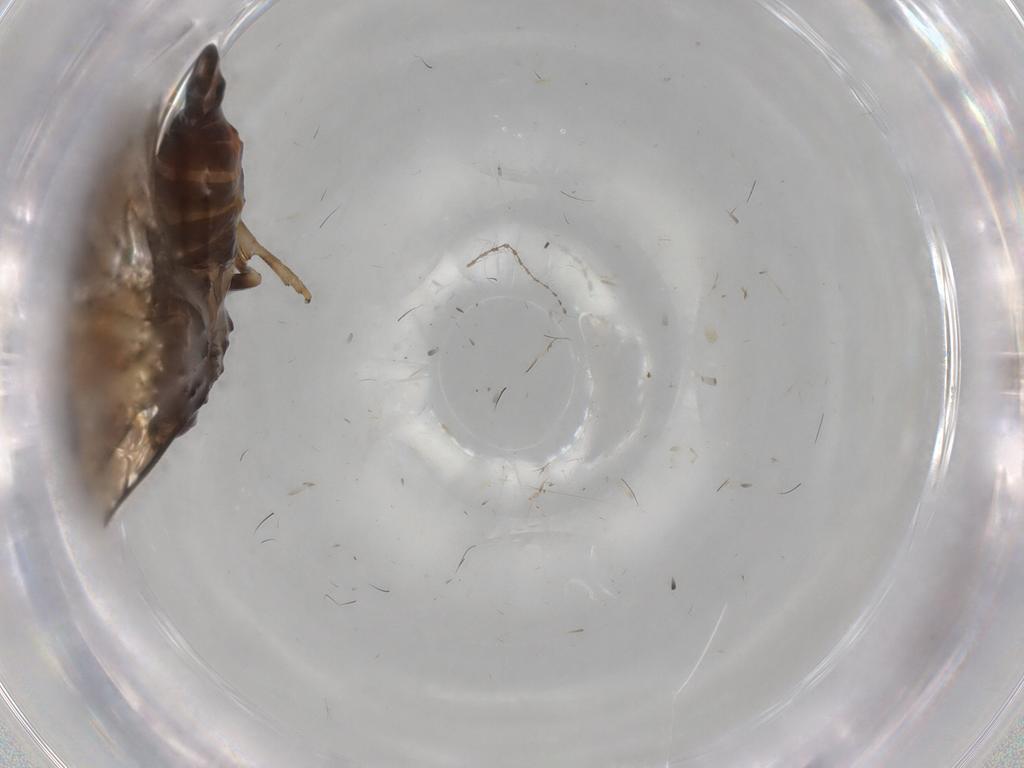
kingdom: Animalia
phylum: Arthropoda
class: Insecta
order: Hemiptera
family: Cixiidae
